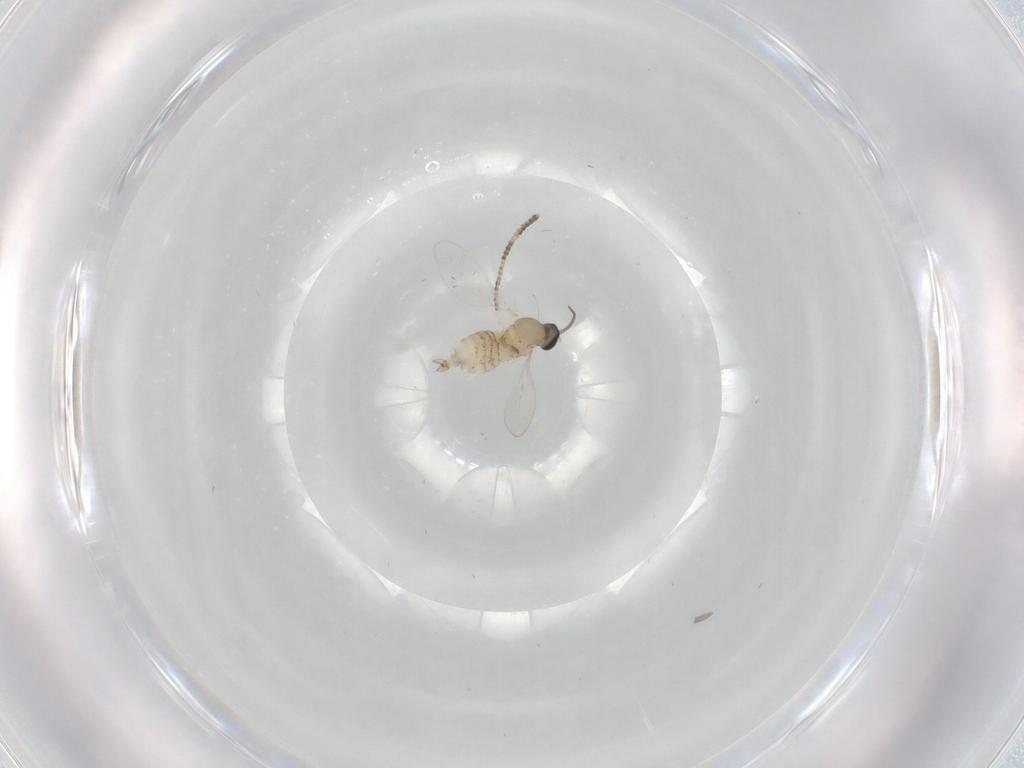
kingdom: Animalia
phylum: Arthropoda
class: Insecta
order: Diptera
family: Cecidomyiidae
